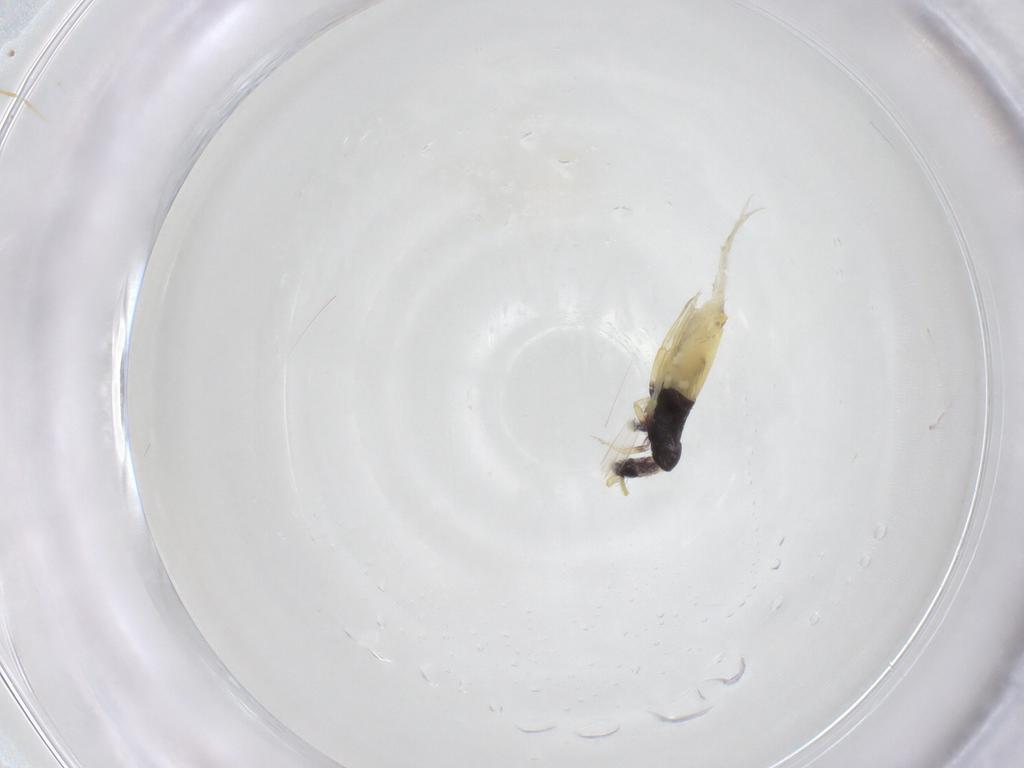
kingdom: Animalia
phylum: Arthropoda
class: Collembola
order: Entomobryomorpha
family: Entomobryidae
